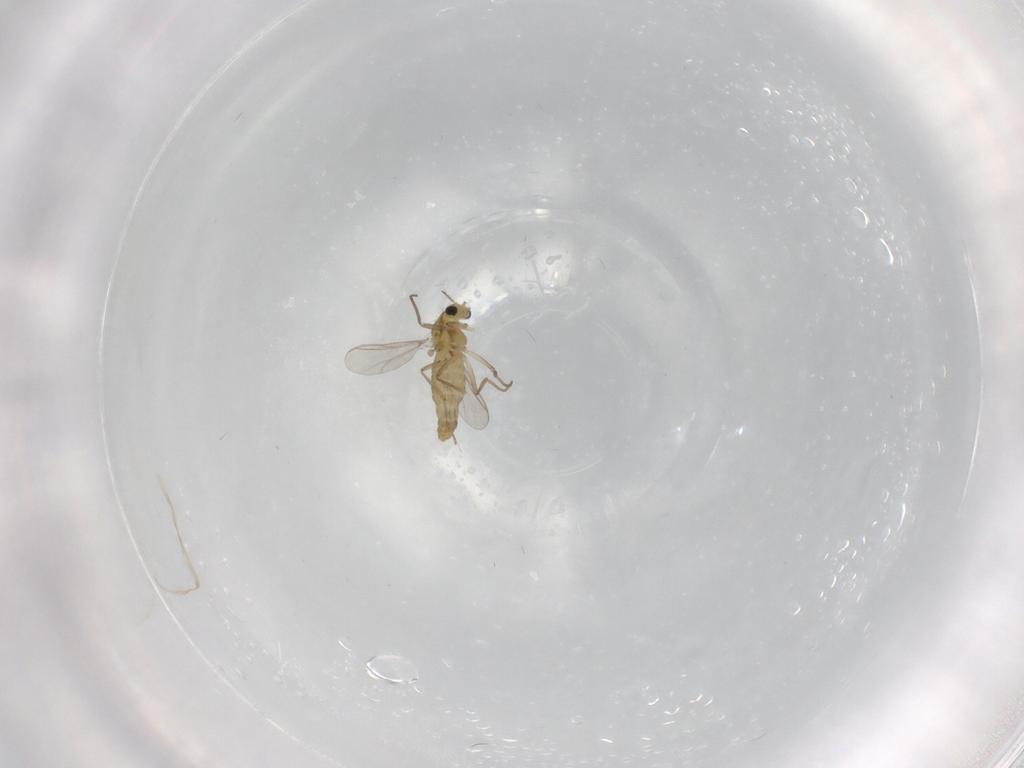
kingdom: Animalia
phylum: Arthropoda
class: Insecta
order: Diptera
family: Chironomidae
